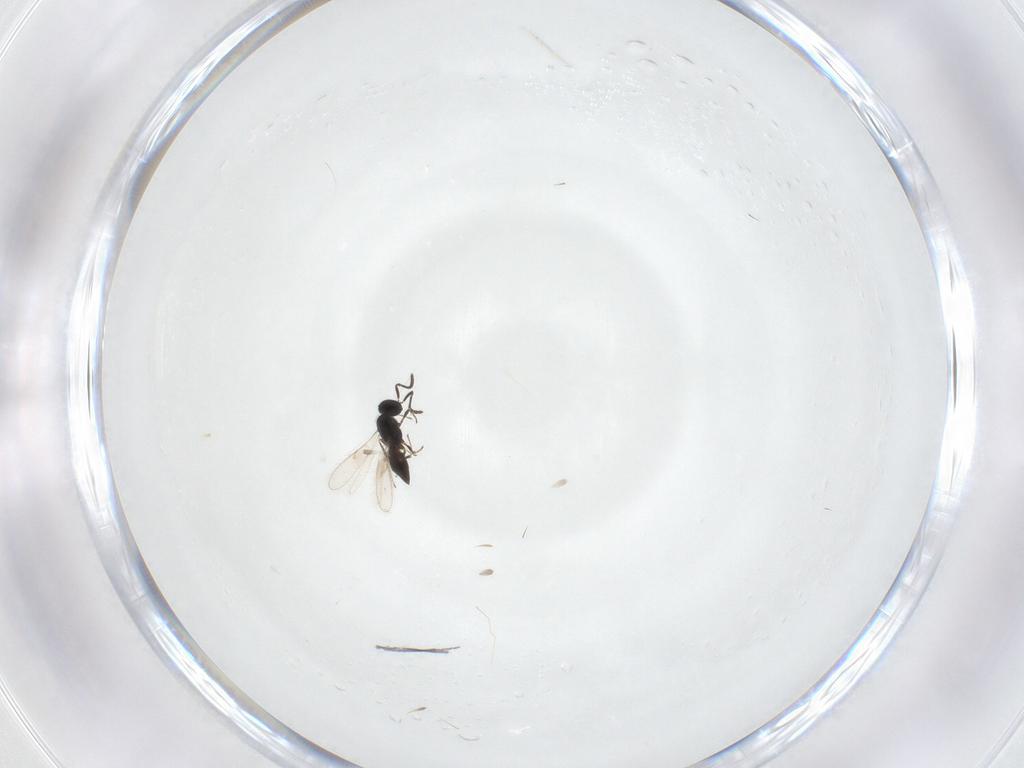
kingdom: Animalia
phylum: Arthropoda
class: Insecta
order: Hymenoptera
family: Scelionidae
